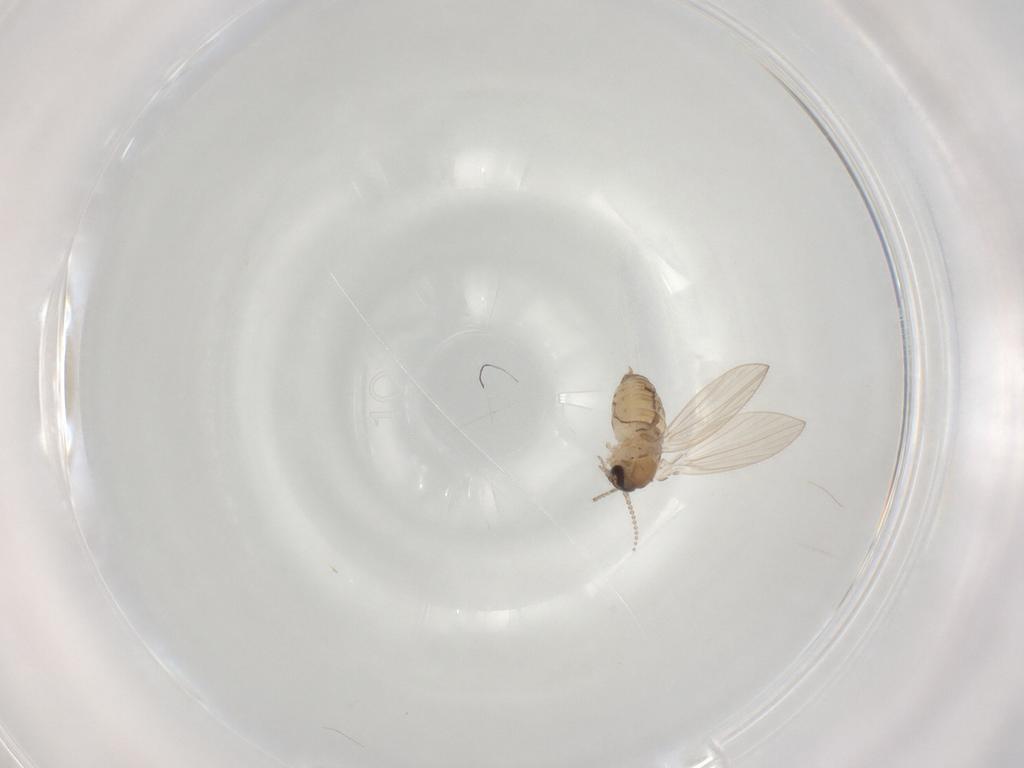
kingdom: Animalia
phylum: Arthropoda
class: Insecta
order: Diptera
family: Psychodidae
